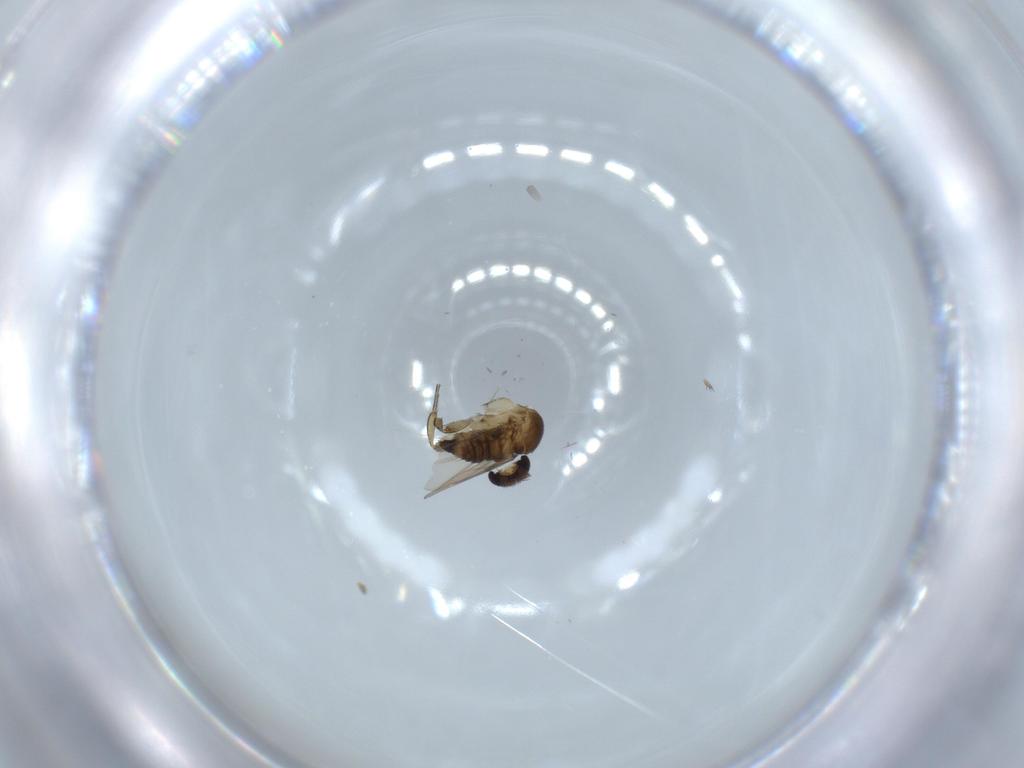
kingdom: Animalia
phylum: Arthropoda
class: Insecta
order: Diptera
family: Phoridae
